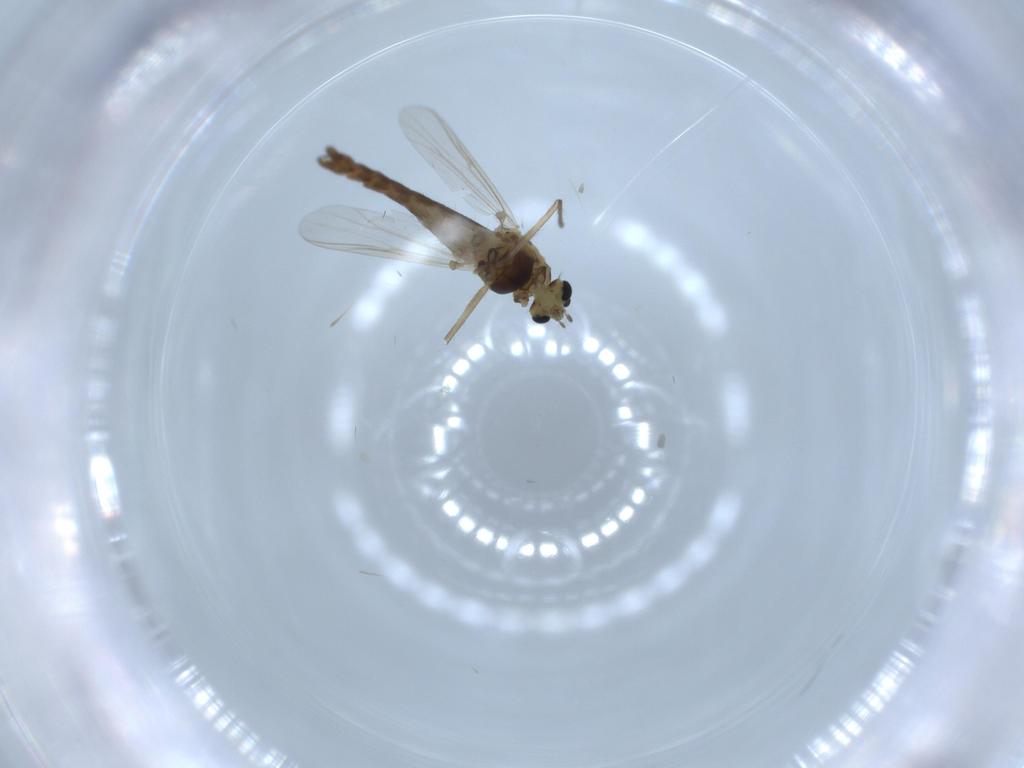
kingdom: Animalia
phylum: Arthropoda
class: Insecta
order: Diptera
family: Chironomidae
